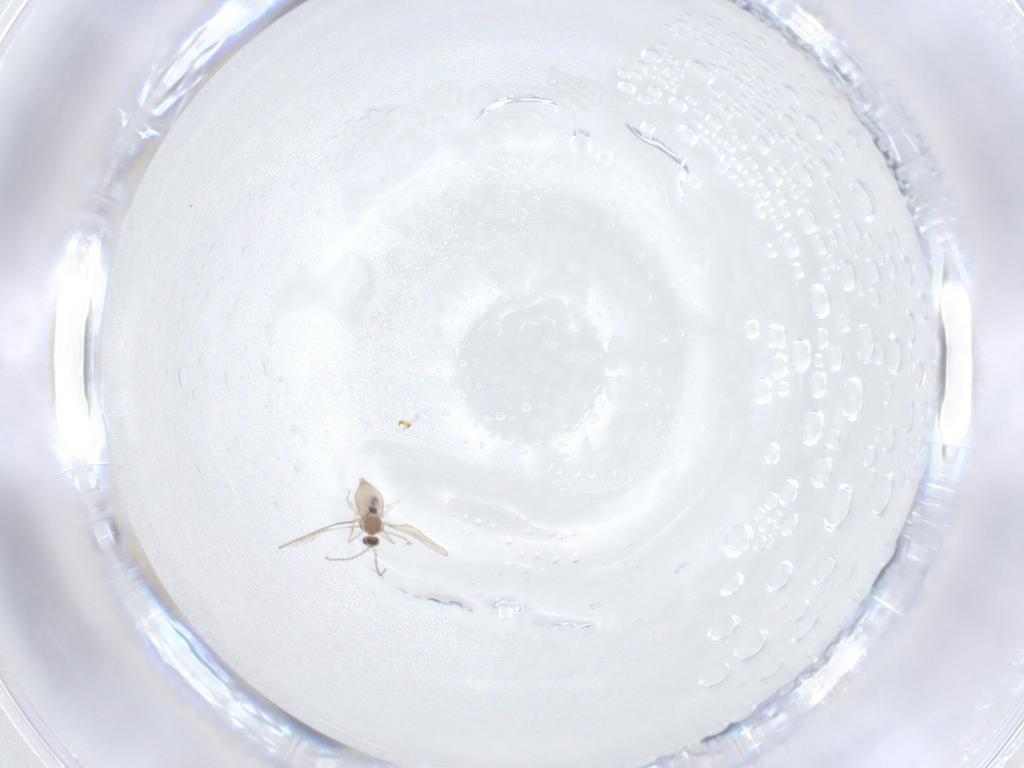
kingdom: Animalia
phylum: Arthropoda
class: Insecta
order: Diptera
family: Cecidomyiidae
